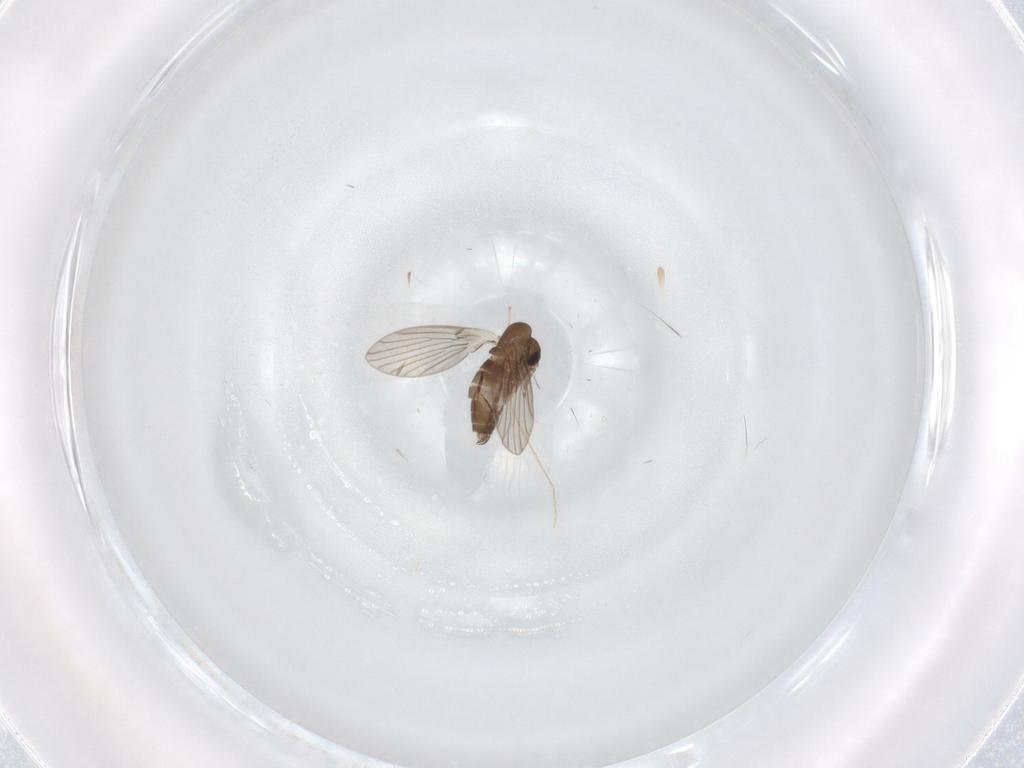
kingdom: Animalia
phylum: Arthropoda
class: Insecta
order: Diptera
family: Chironomidae
